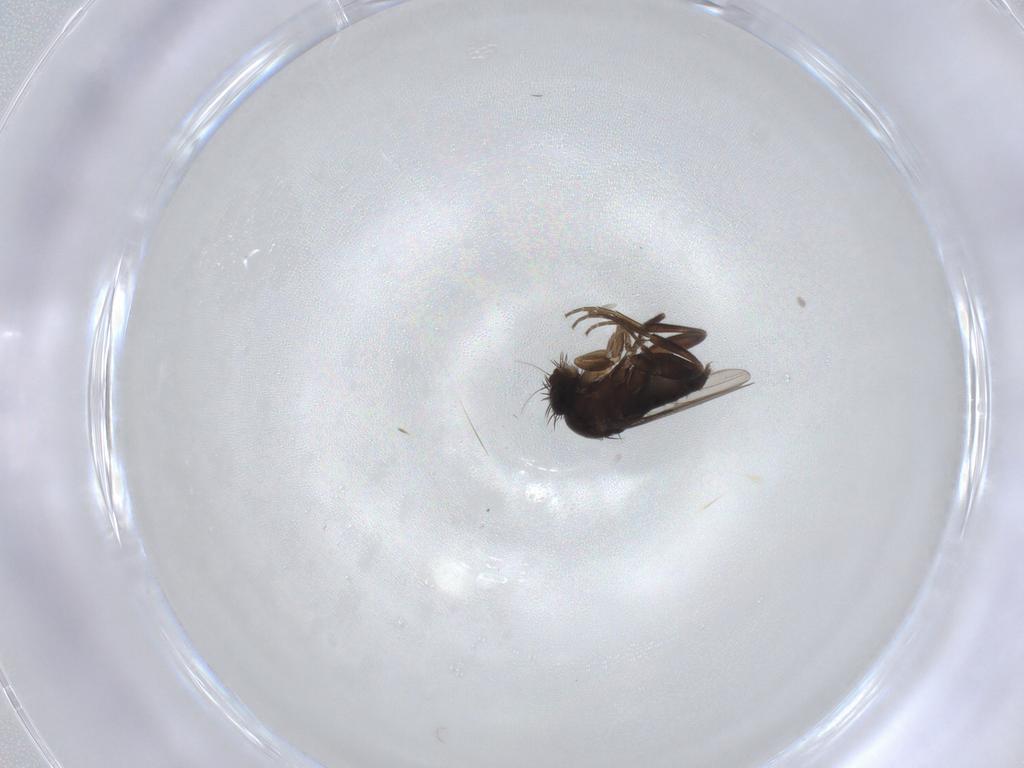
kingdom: Animalia
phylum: Arthropoda
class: Insecta
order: Diptera
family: Phoridae
